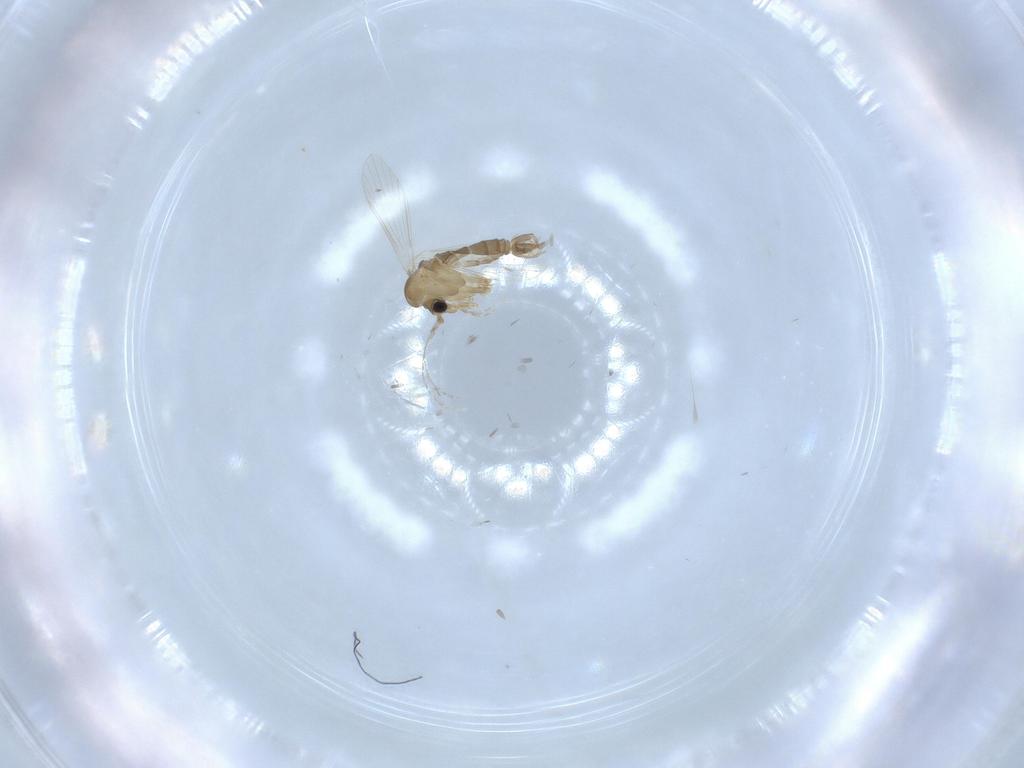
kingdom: Animalia
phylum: Arthropoda
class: Insecta
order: Diptera
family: Psychodidae
